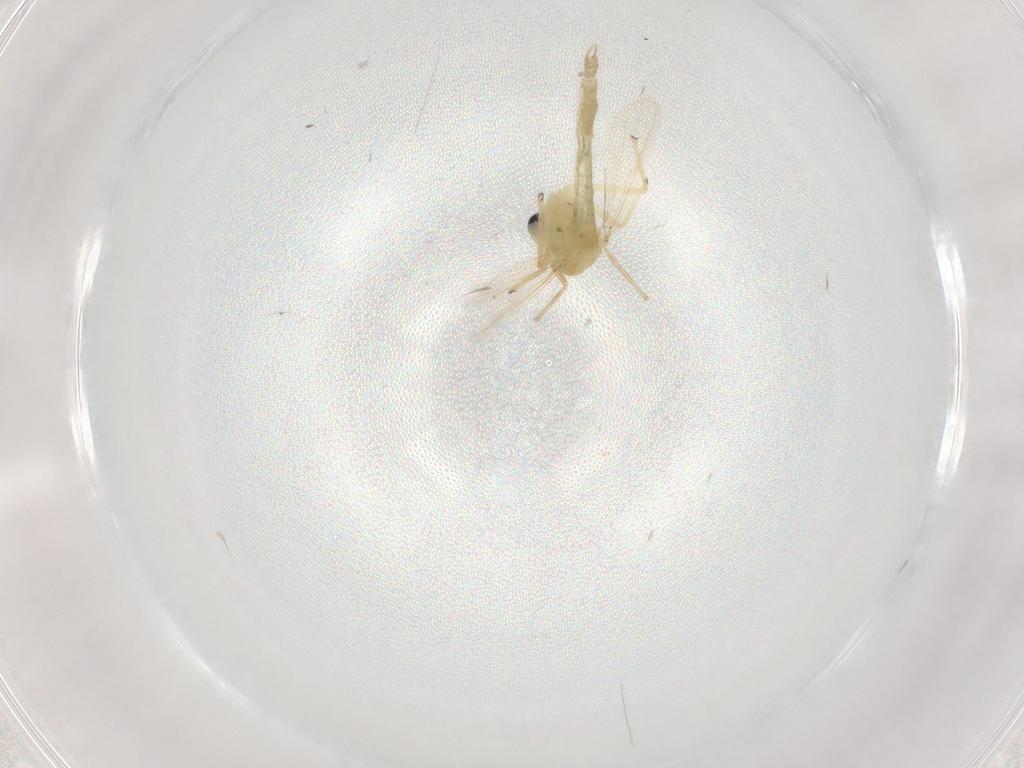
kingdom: Animalia
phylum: Arthropoda
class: Insecta
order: Diptera
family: Chironomidae
